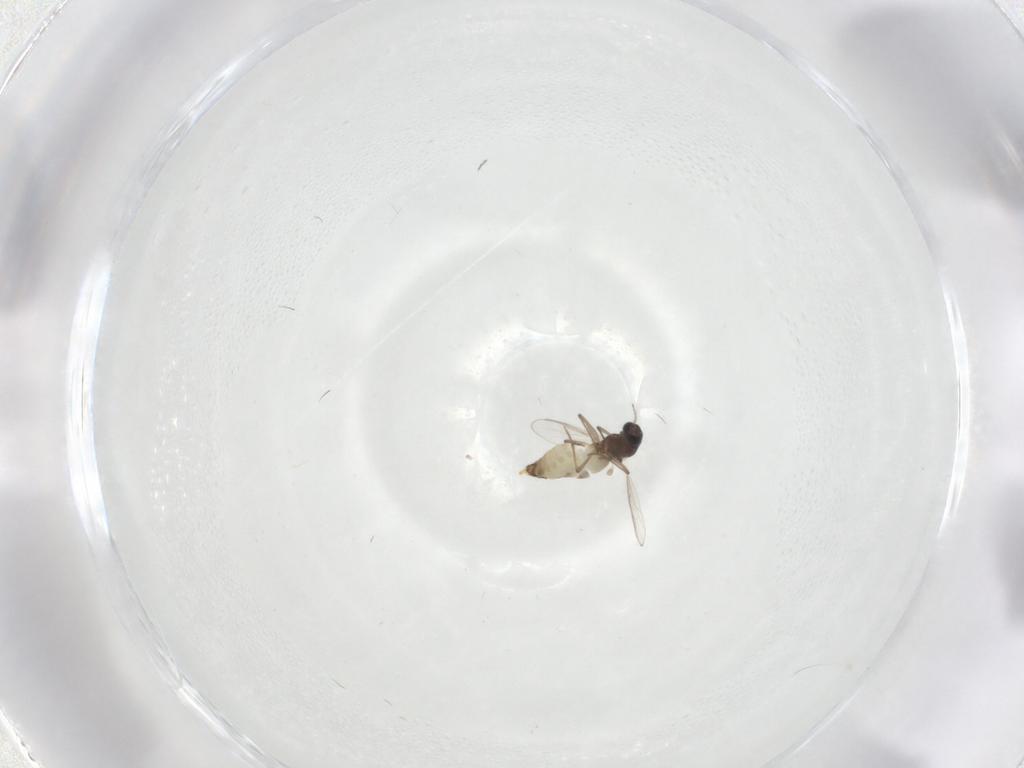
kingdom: Animalia
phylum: Arthropoda
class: Insecta
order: Diptera
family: Chironomidae
